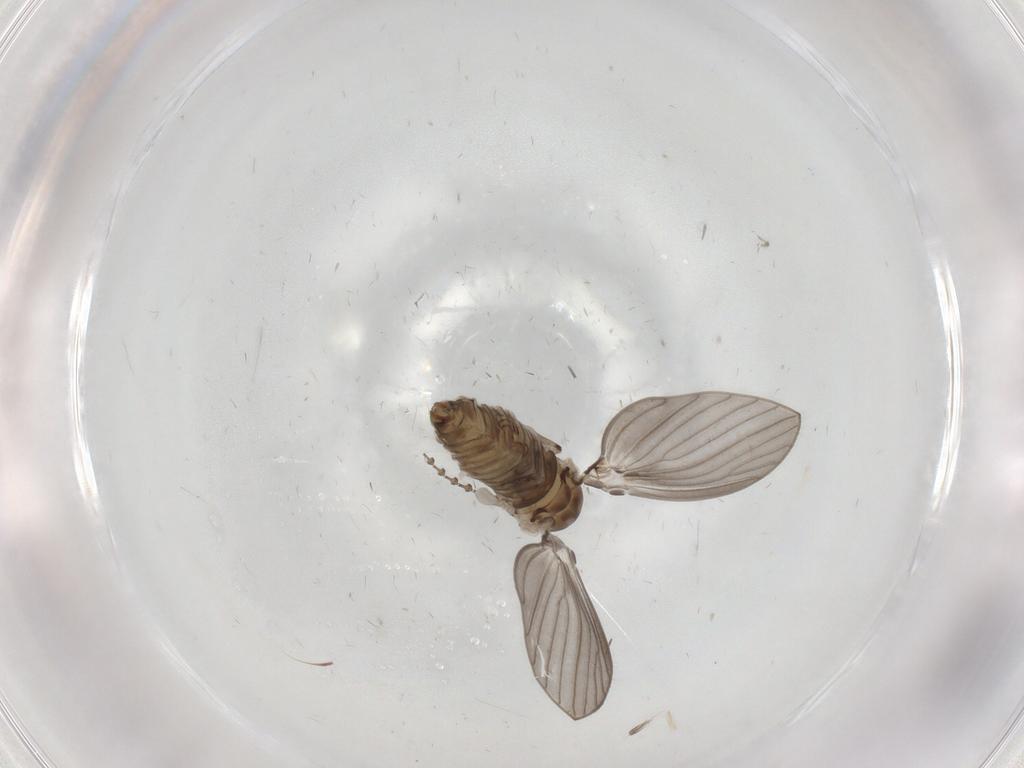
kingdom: Animalia
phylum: Arthropoda
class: Insecta
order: Diptera
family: Psychodidae
